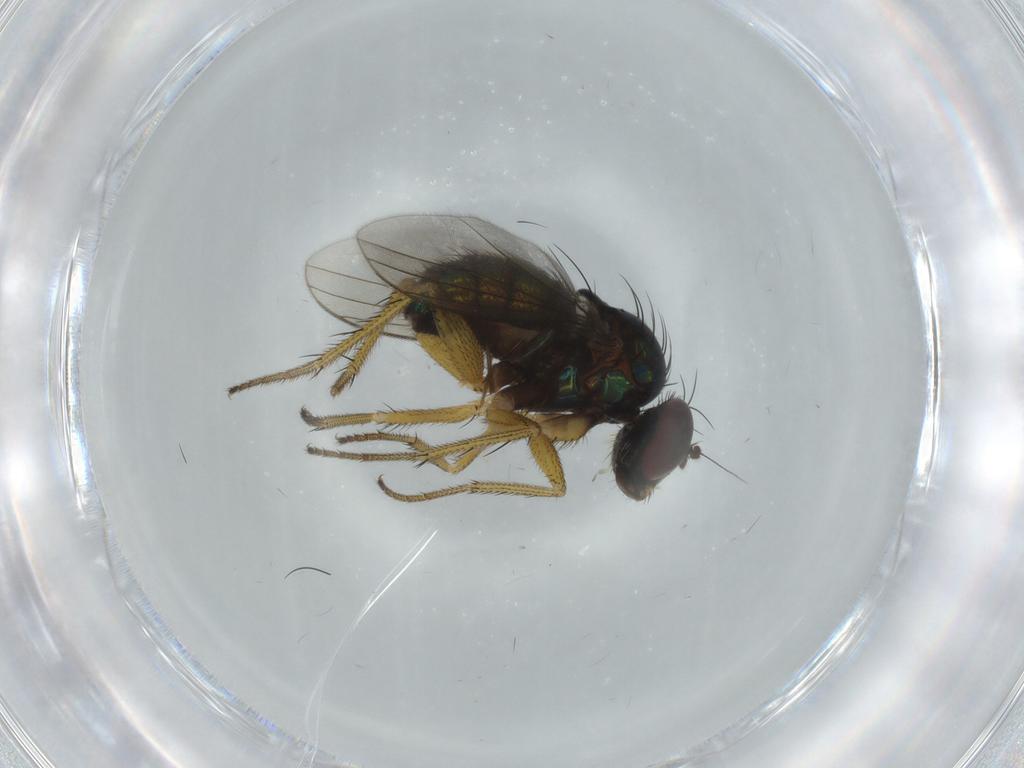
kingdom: Animalia
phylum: Arthropoda
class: Insecta
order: Diptera
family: Dolichopodidae
